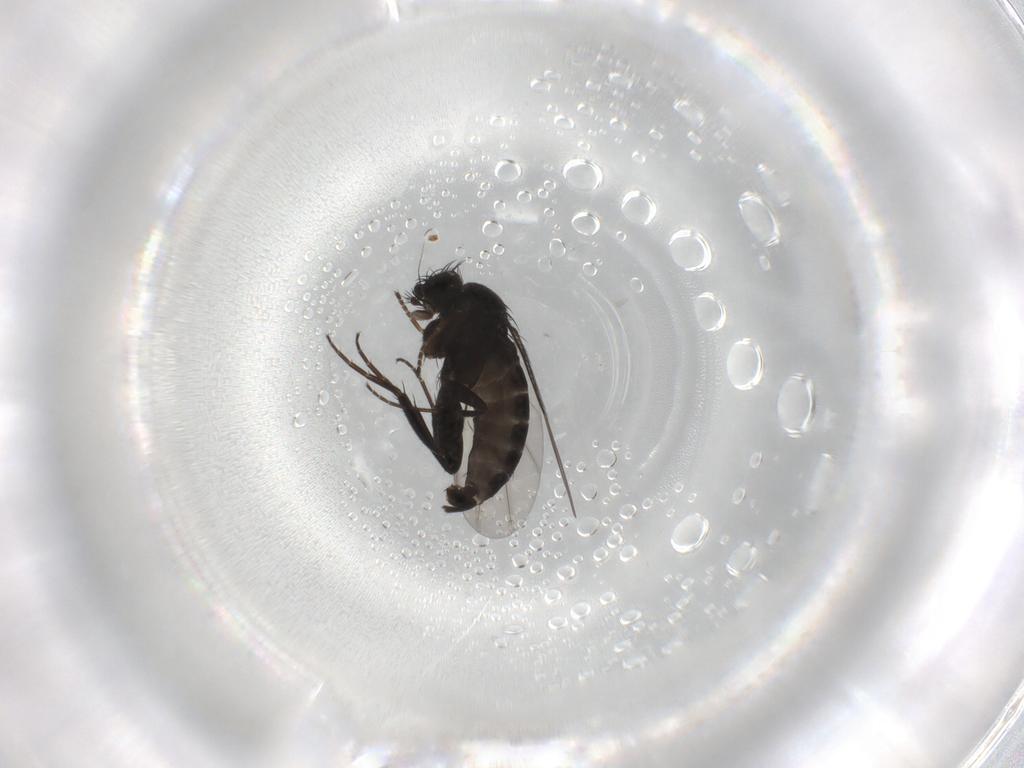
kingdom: Animalia
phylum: Arthropoda
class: Insecta
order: Diptera
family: Phoridae
